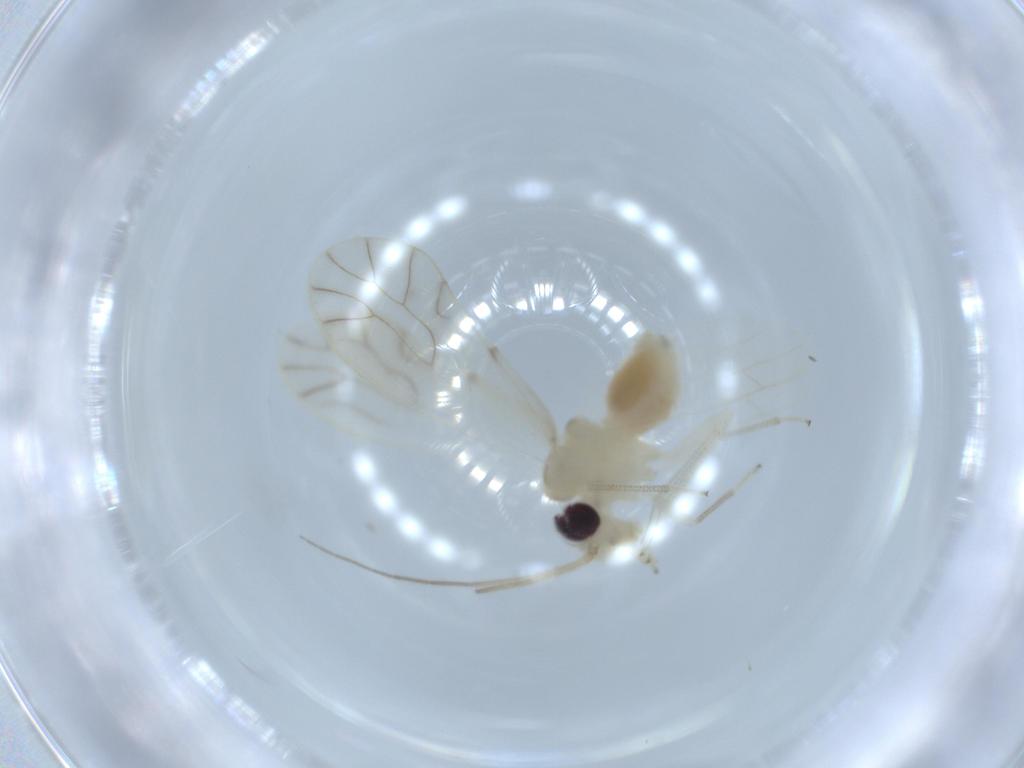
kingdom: Animalia
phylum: Arthropoda
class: Insecta
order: Psocodea
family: Caeciliusidae
